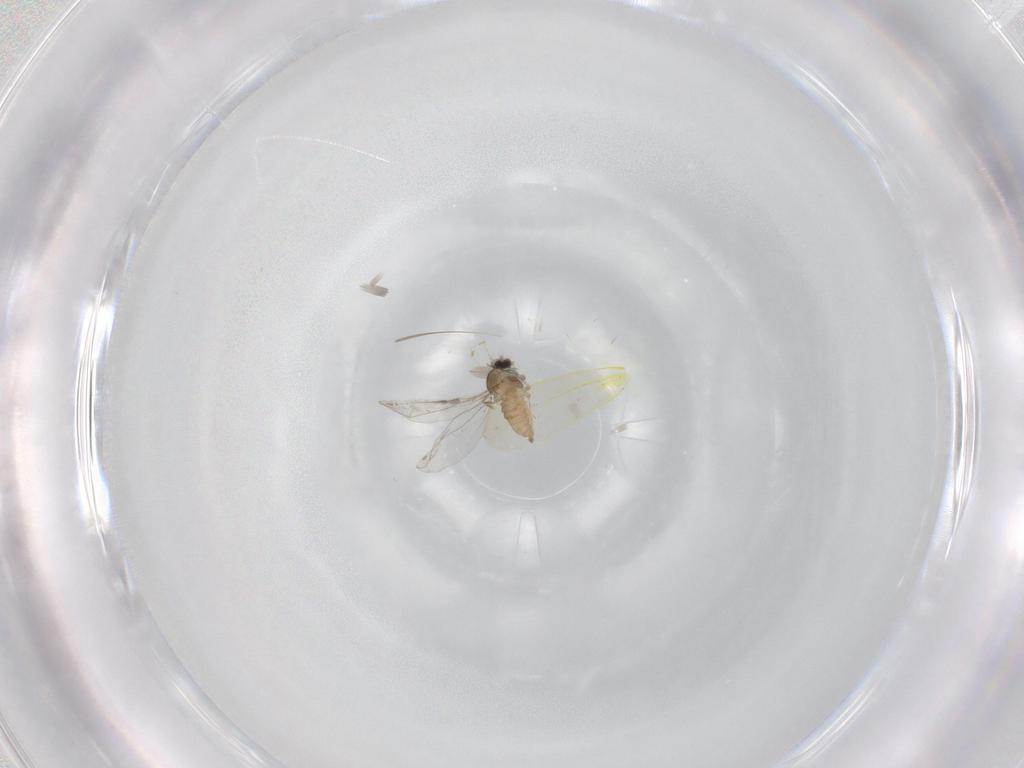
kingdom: Animalia
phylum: Arthropoda
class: Insecta
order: Diptera
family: Cecidomyiidae
